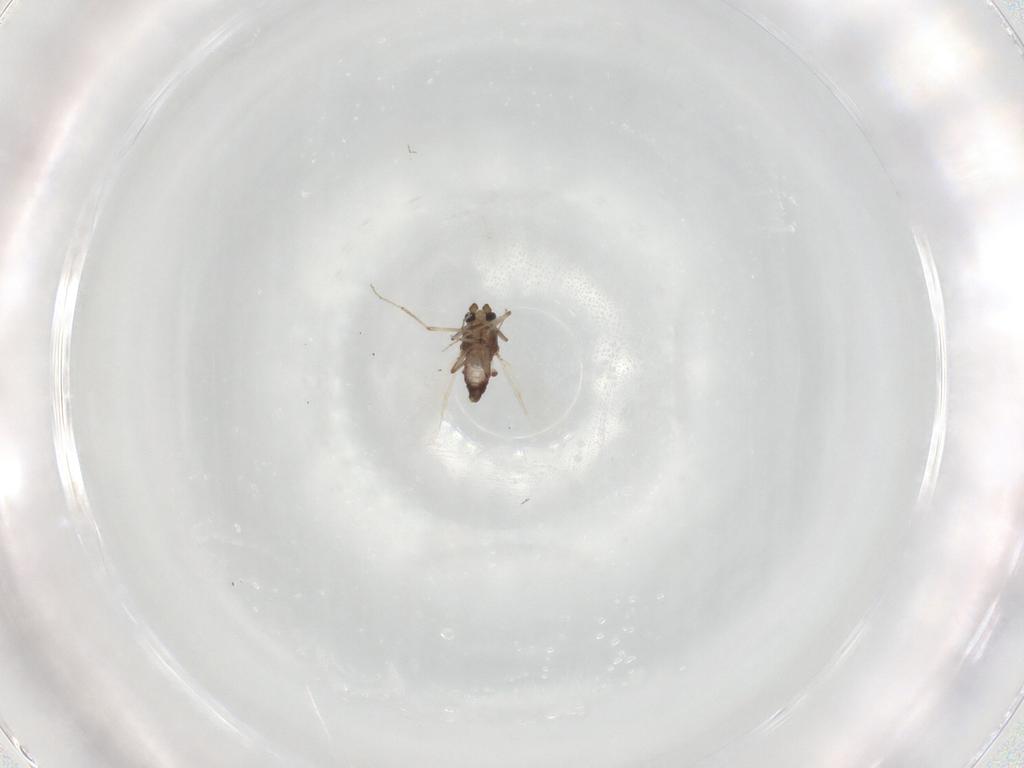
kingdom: Animalia
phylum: Arthropoda
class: Insecta
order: Diptera
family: Ceratopogonidae
